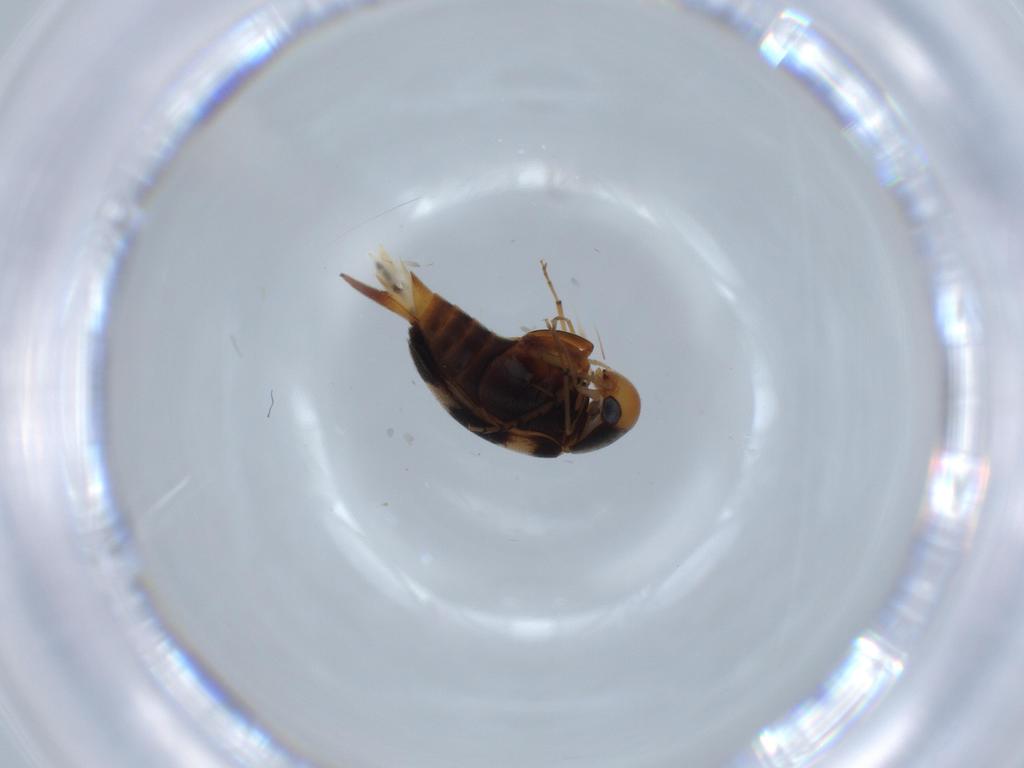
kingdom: Animalia
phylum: Arthropoda
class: Insecta
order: Coleoptera
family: Mordellidae
